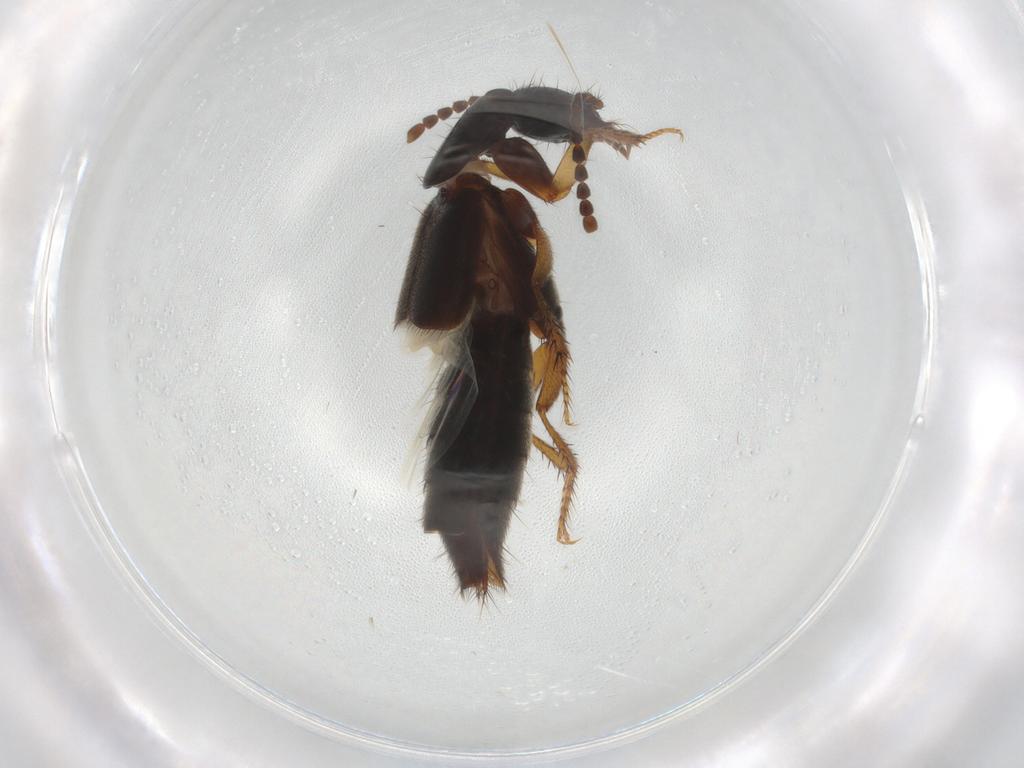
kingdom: Animalia
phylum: Arthropoda
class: Insecta
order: Coleoptera
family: Staphylinidae
